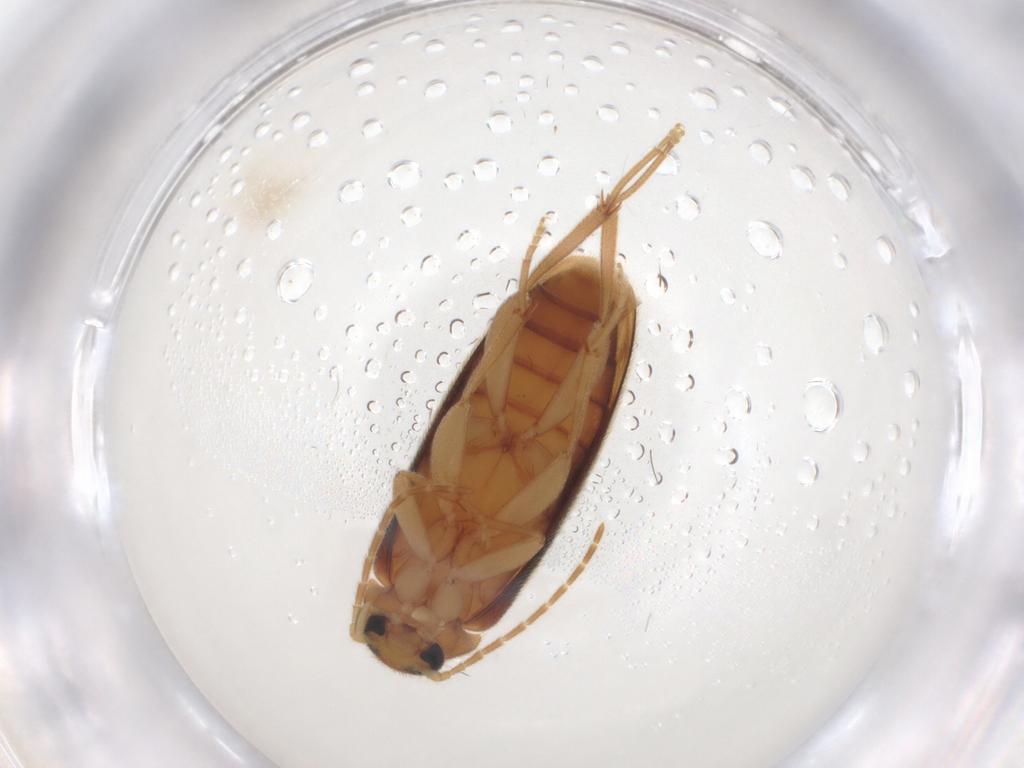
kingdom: Animalia
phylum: Arthropoda
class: Insecta
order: Coleoptera
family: Scraptiidae
